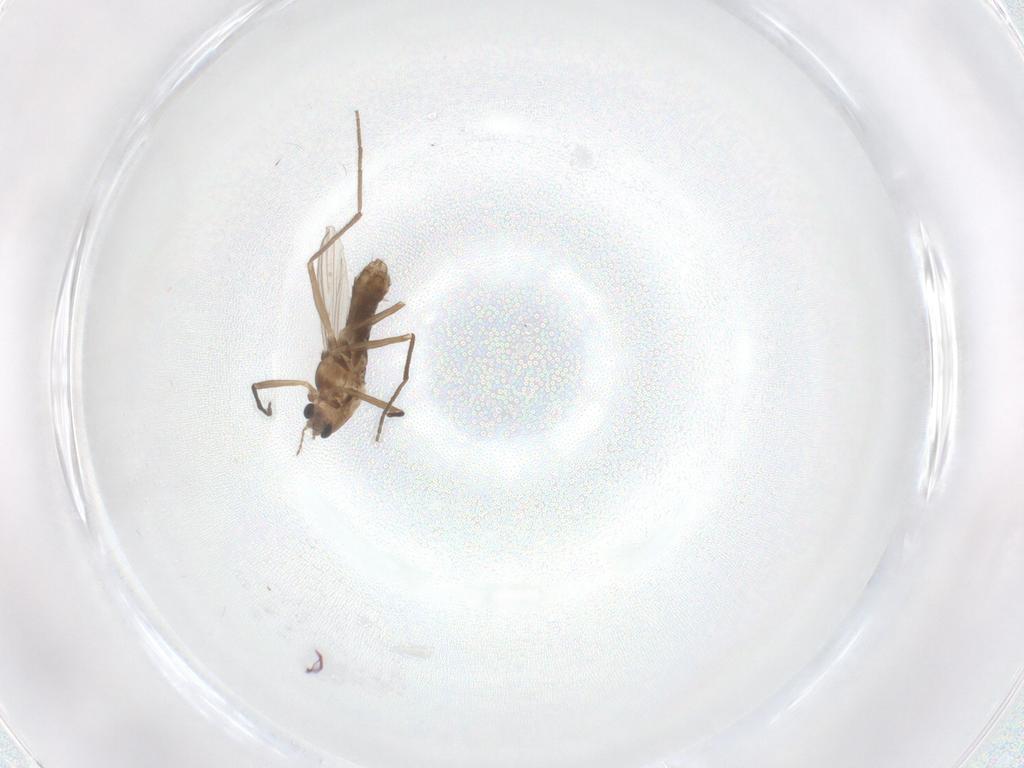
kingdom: Animalia
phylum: Arthropoda
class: Insecta
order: Diptera
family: Chironomidae
